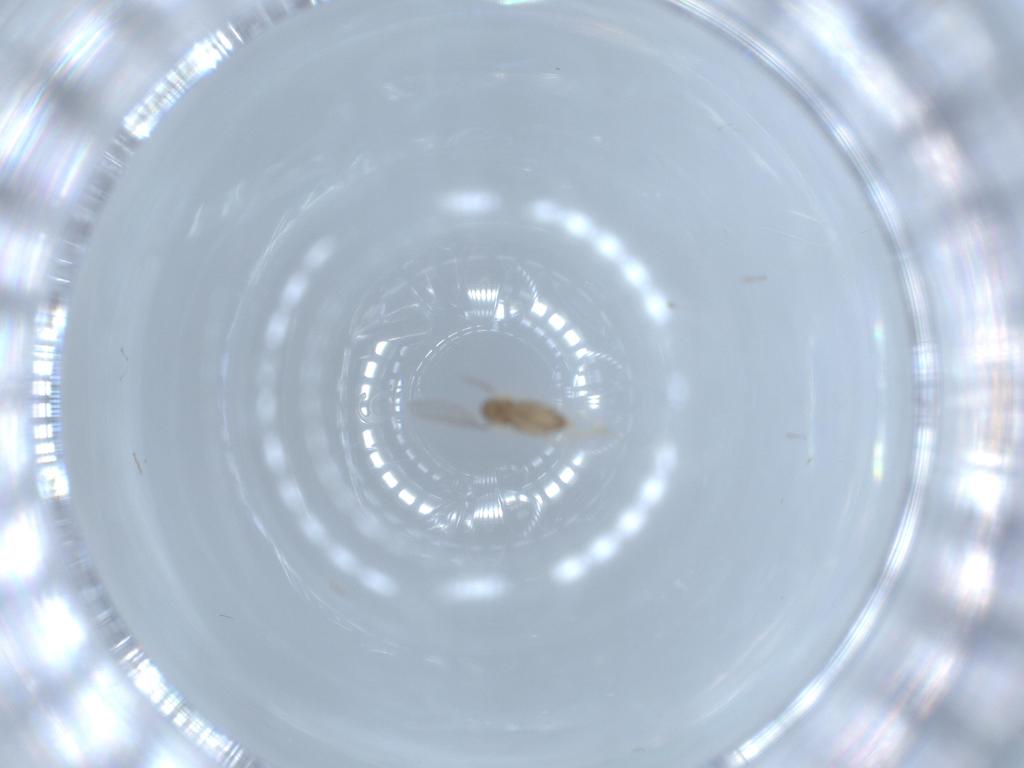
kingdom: Animalia
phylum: Arthropoda
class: Insecta
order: Diptera
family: Cecidomyiidae
